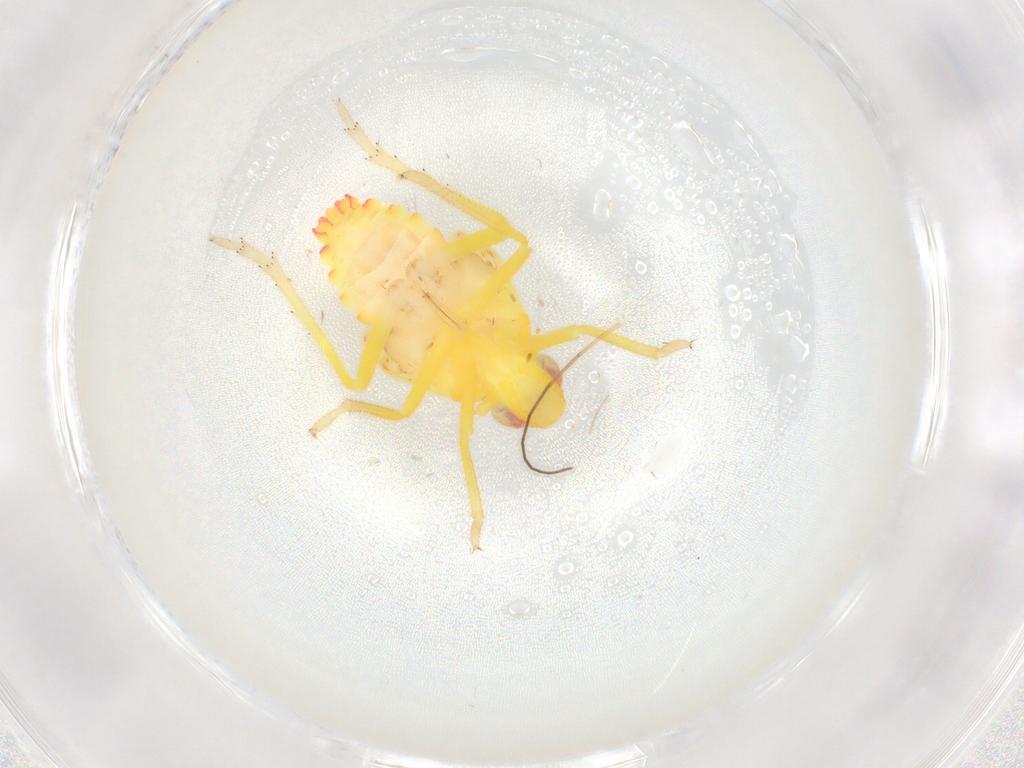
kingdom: Animalia
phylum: Arthropoda
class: Insecta
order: Hemiptera
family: Tropiduchidae
